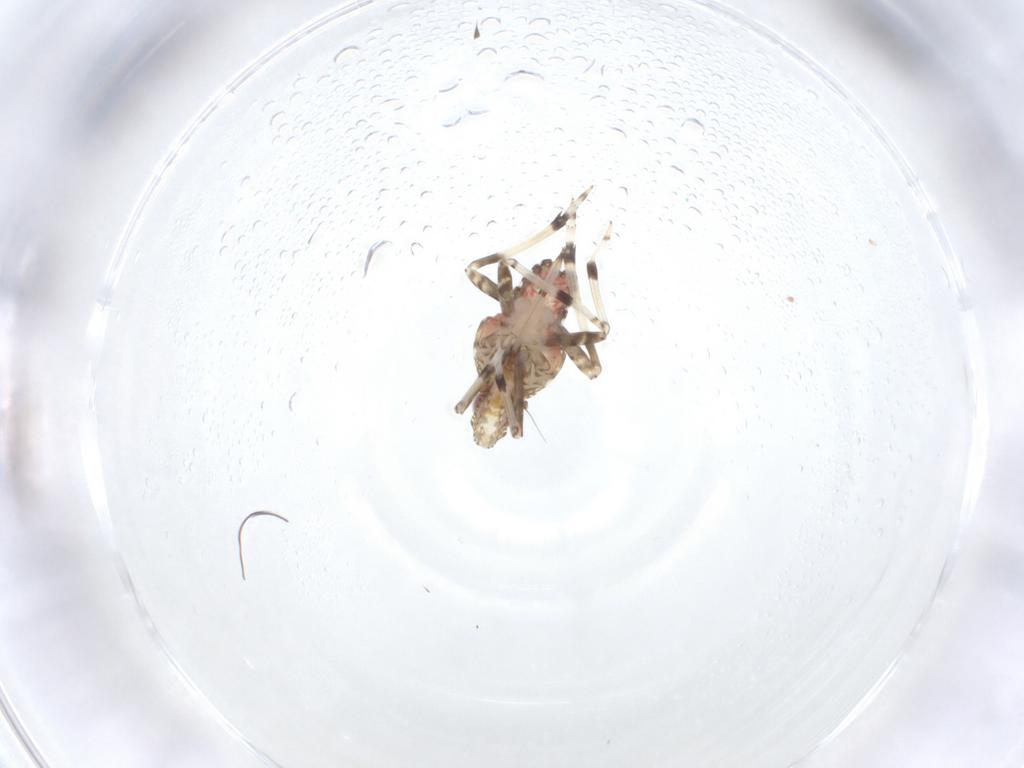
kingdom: Animalia
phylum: Arthropoda
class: Insecta
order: Hemiptera
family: Dictyopharidae
